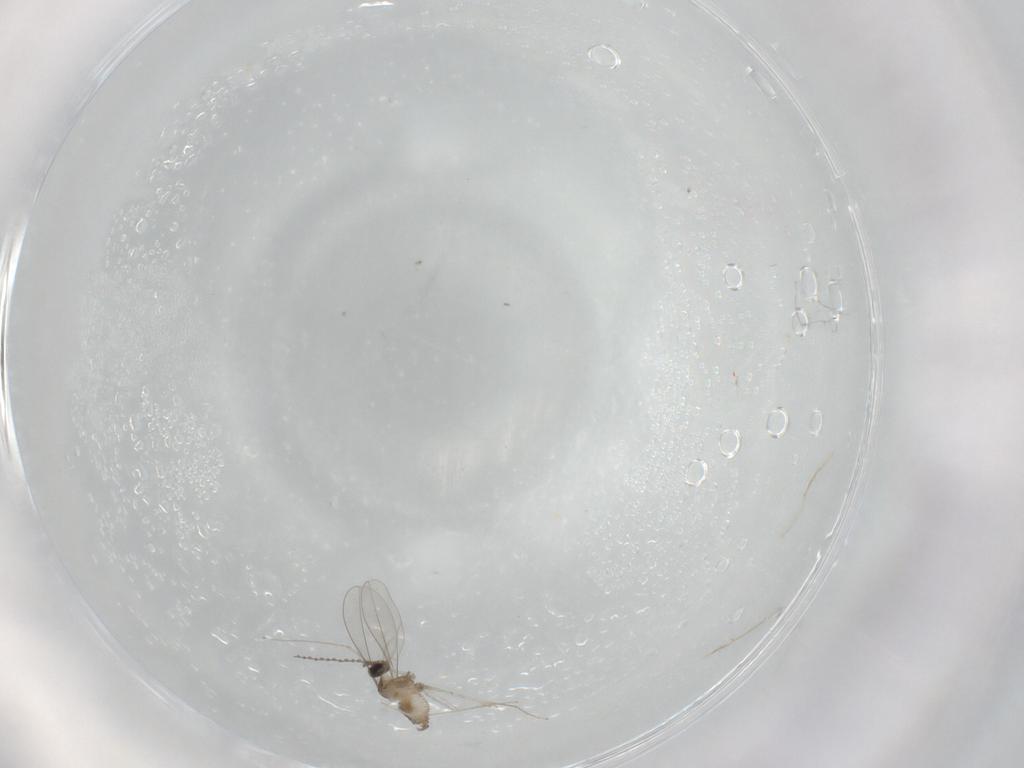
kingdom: Animalia
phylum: Arthropoda
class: Insecta
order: Diptera
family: Cecidomyiidae
